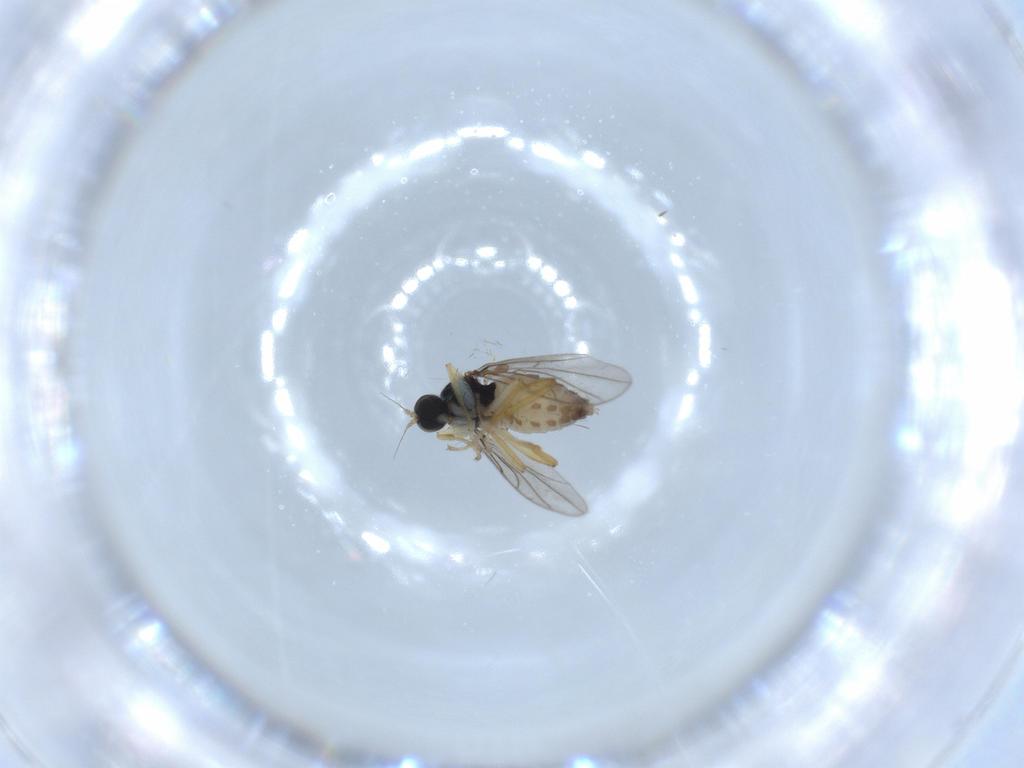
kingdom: Animalia
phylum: Arthropoda
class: Insecta
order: Diptera
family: Hybotidae
